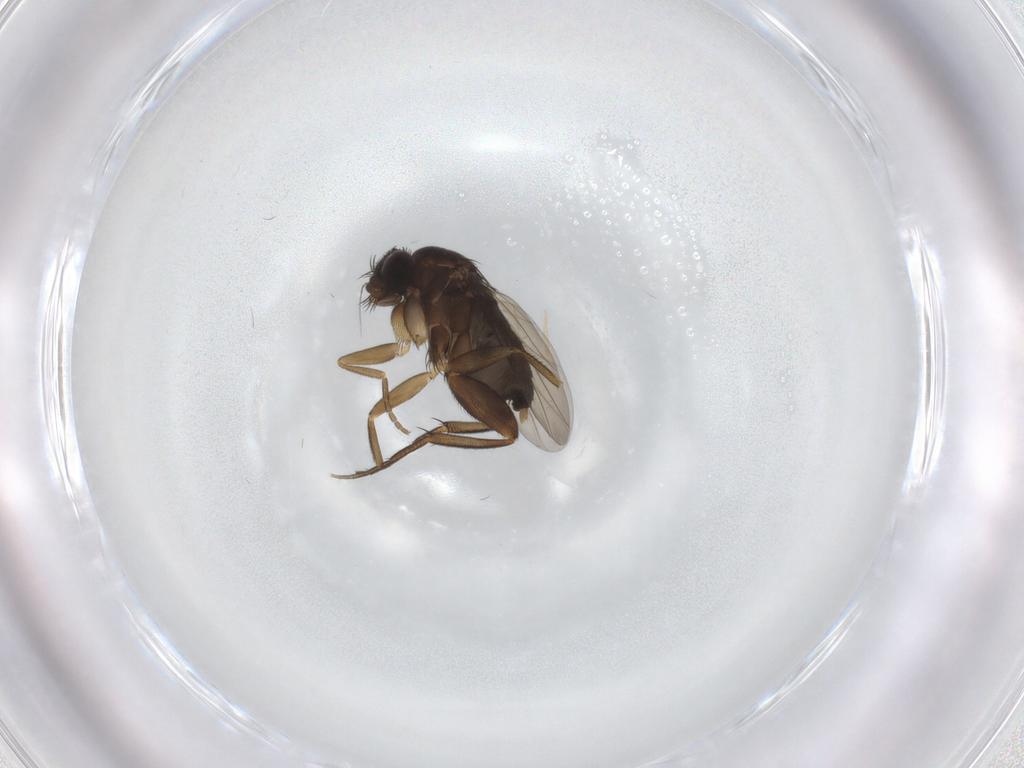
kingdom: Animalia
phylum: Arthropoda
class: Insecta
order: Diptera
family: Phoridae
